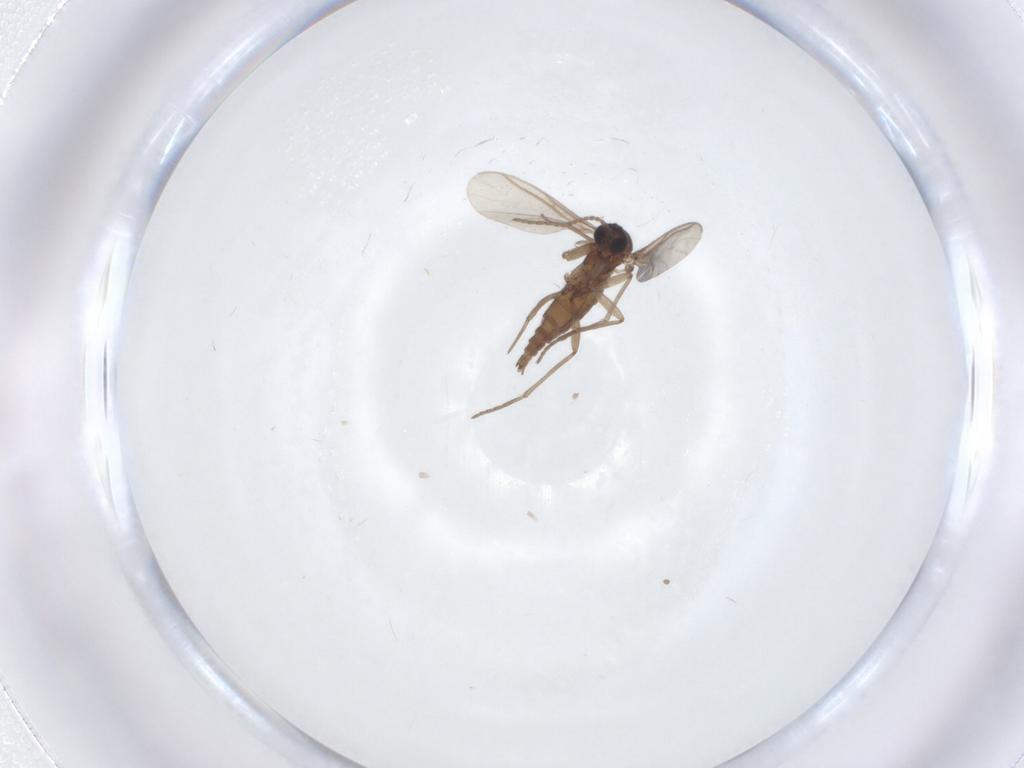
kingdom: Animalia
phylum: Arthropoda
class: Insecta
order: Diptera
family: Sciaridae
